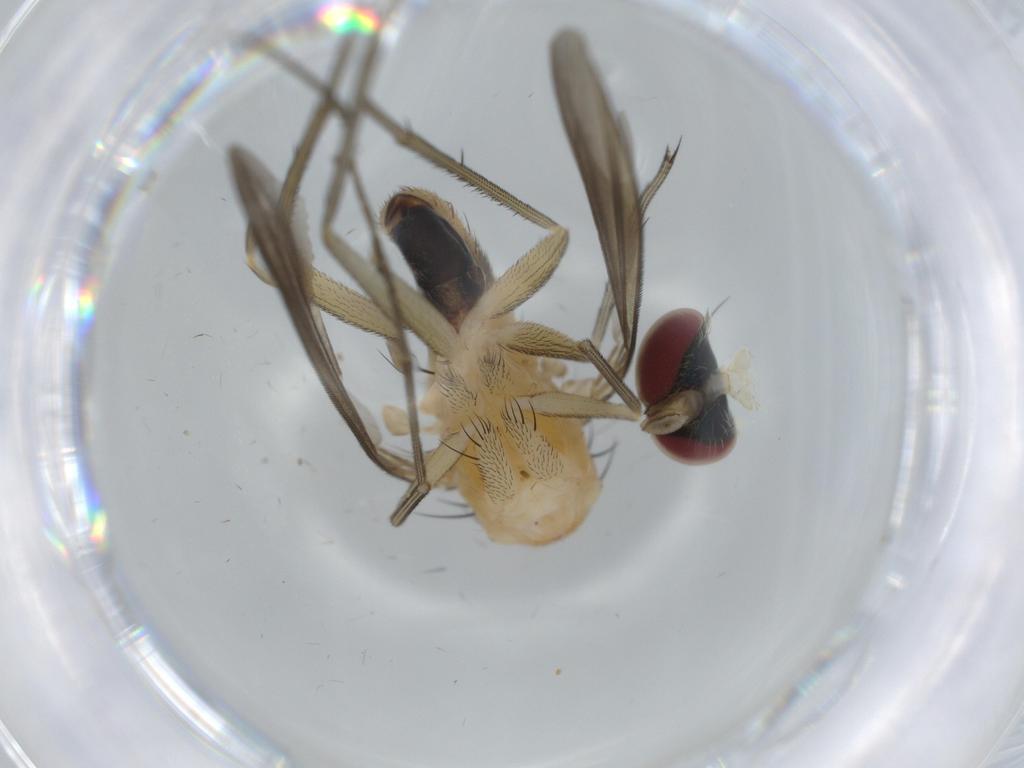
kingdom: Animalia
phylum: Arthropoda
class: Insecta
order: Diptera
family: Dolichopodidae
